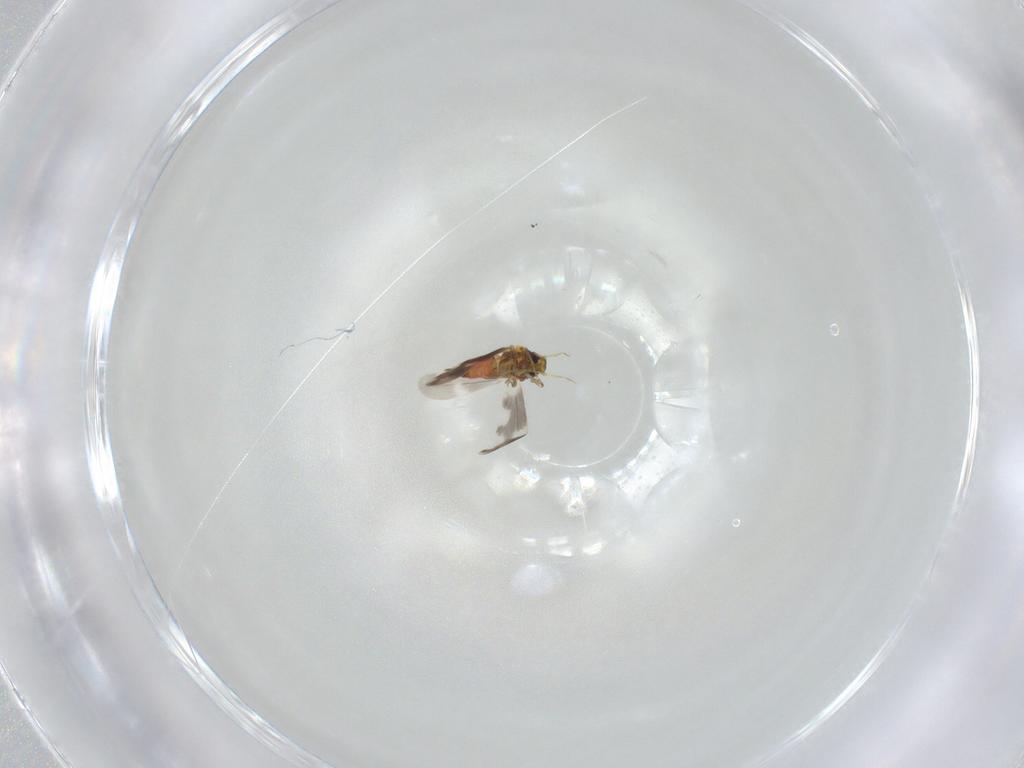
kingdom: Animalia
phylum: Arthropoda
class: Insecta
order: Hemiptera
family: Aleyrodidae
